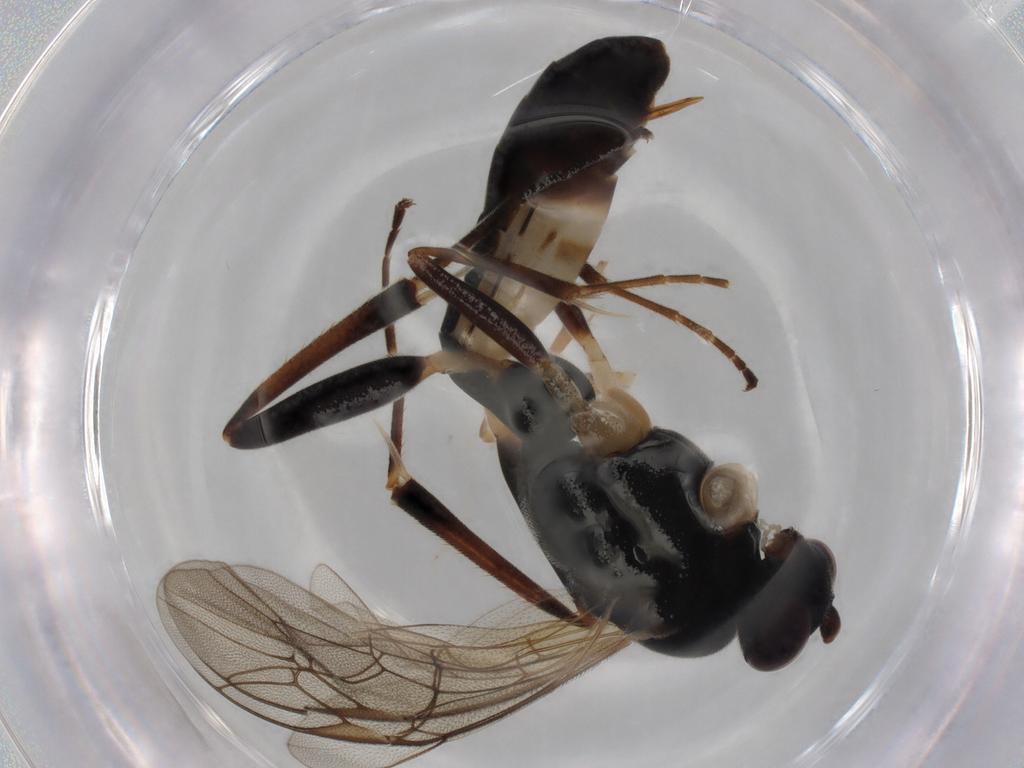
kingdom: Animalia
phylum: Arthropoda
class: Insecta
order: Hymenoptera
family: Ichneumonidae
